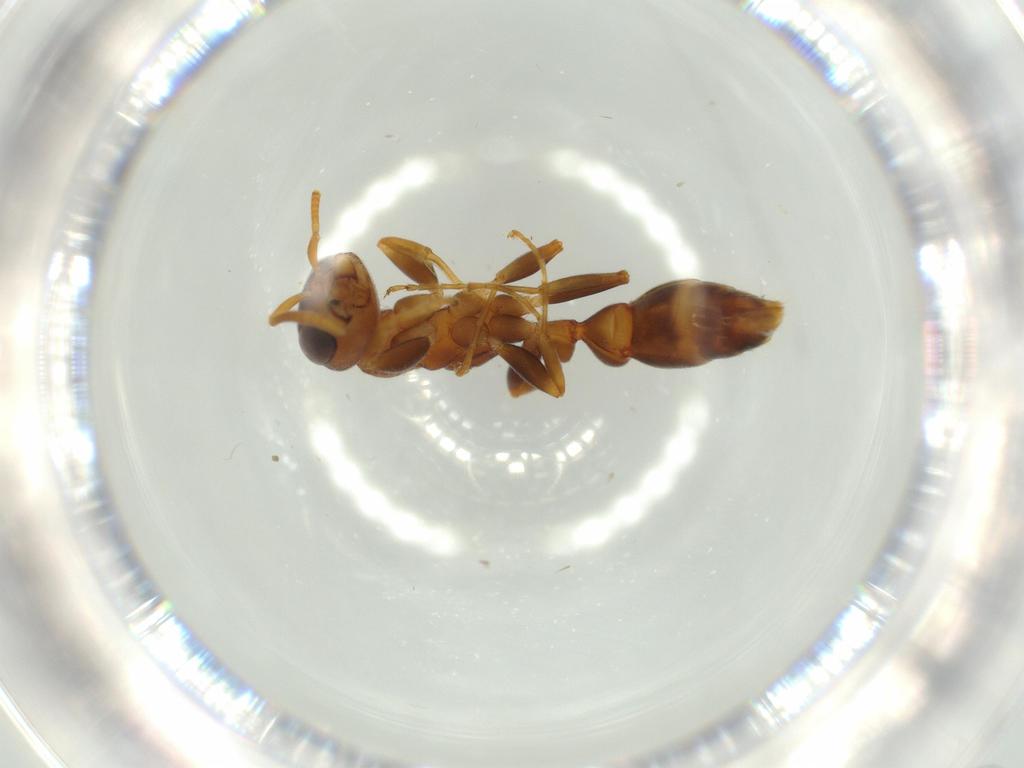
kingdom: Animalia
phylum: Arthropoda
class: Insecta
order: Hymenoptera
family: Formicidae
